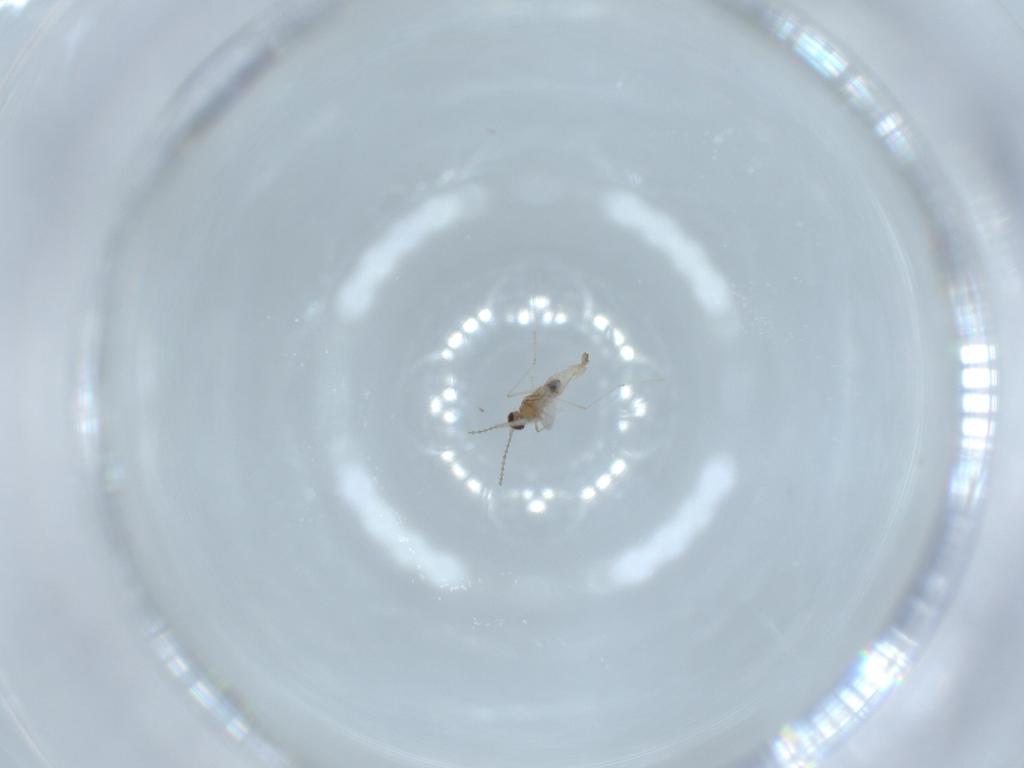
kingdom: Animalia
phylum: Arthropoda
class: Insecta
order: Diptera
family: Cecidomyiidae
